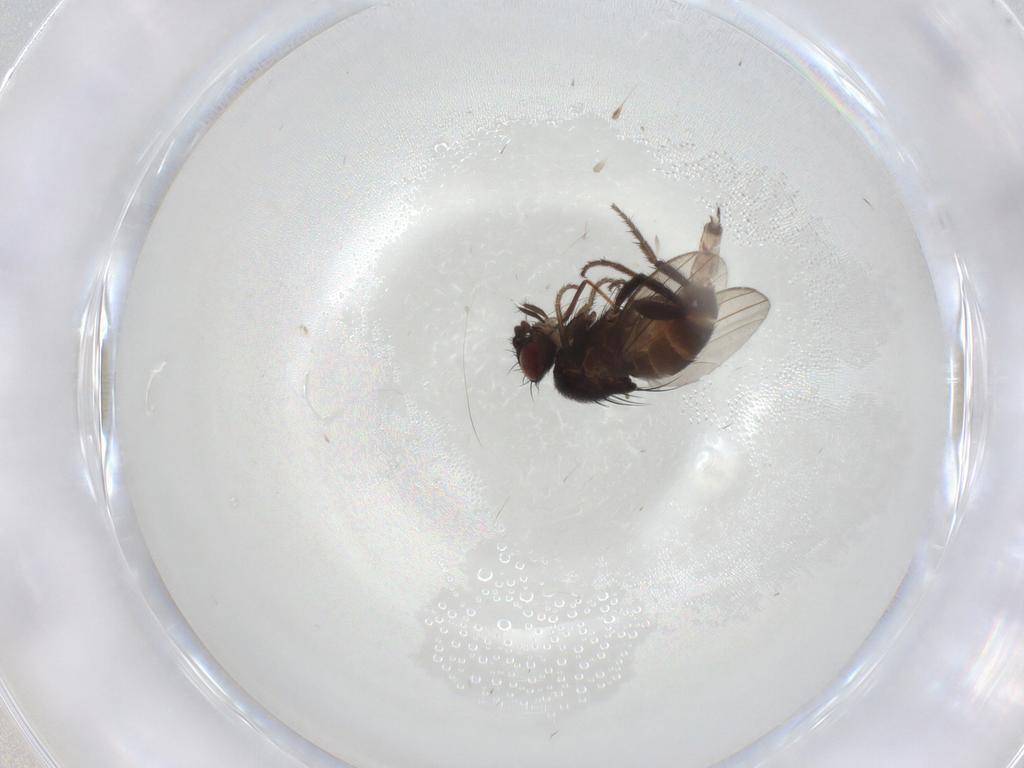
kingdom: Animalia
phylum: Arthropoda
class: Insecta
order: Diptera
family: Milichiidae
